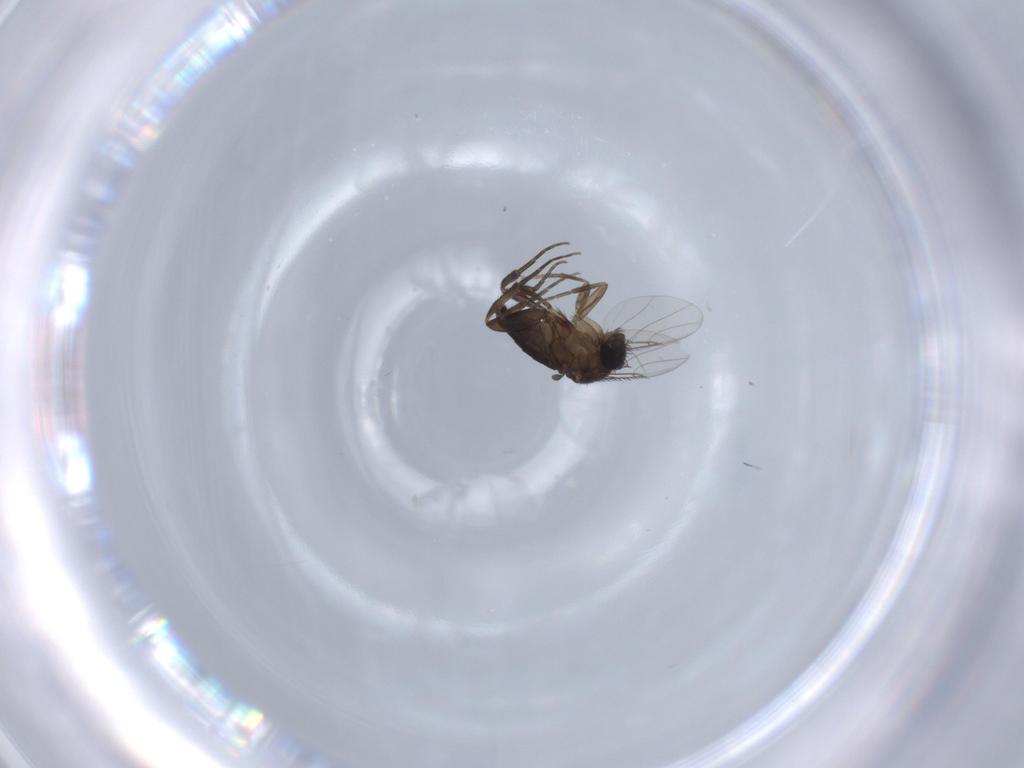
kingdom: Animalia
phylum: Arthropoda
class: Insecta
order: Diptera
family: Phoridae
